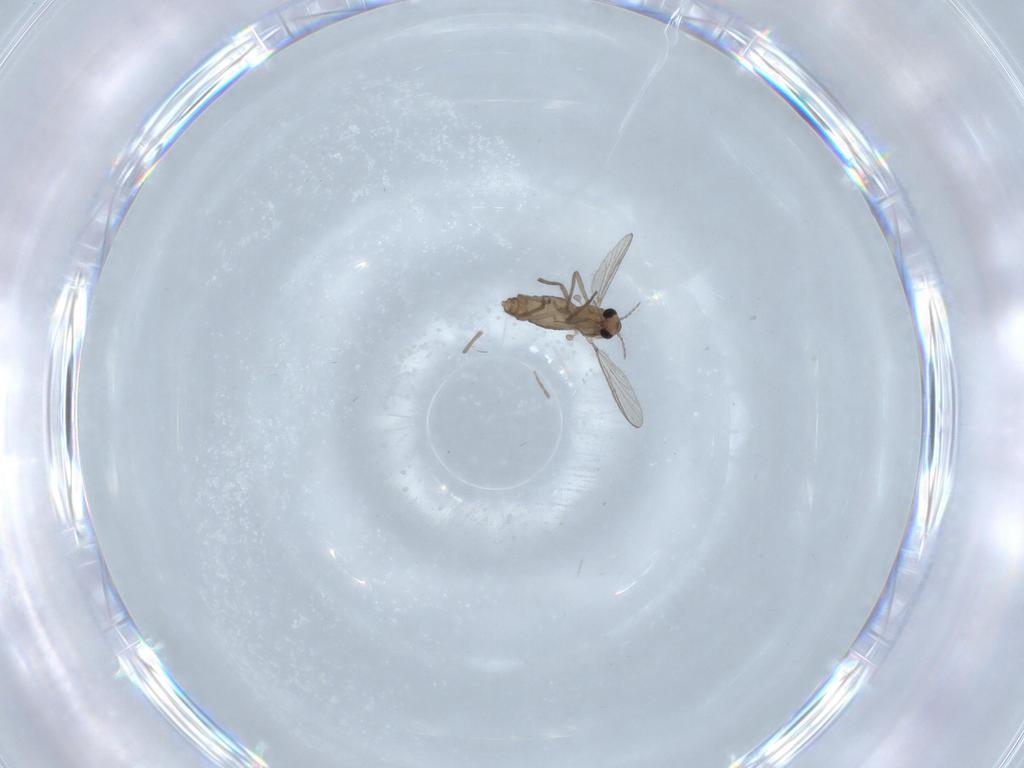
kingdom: Animalia
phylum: Arthropoda
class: Insecta
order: Diptera
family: Chironomidae
